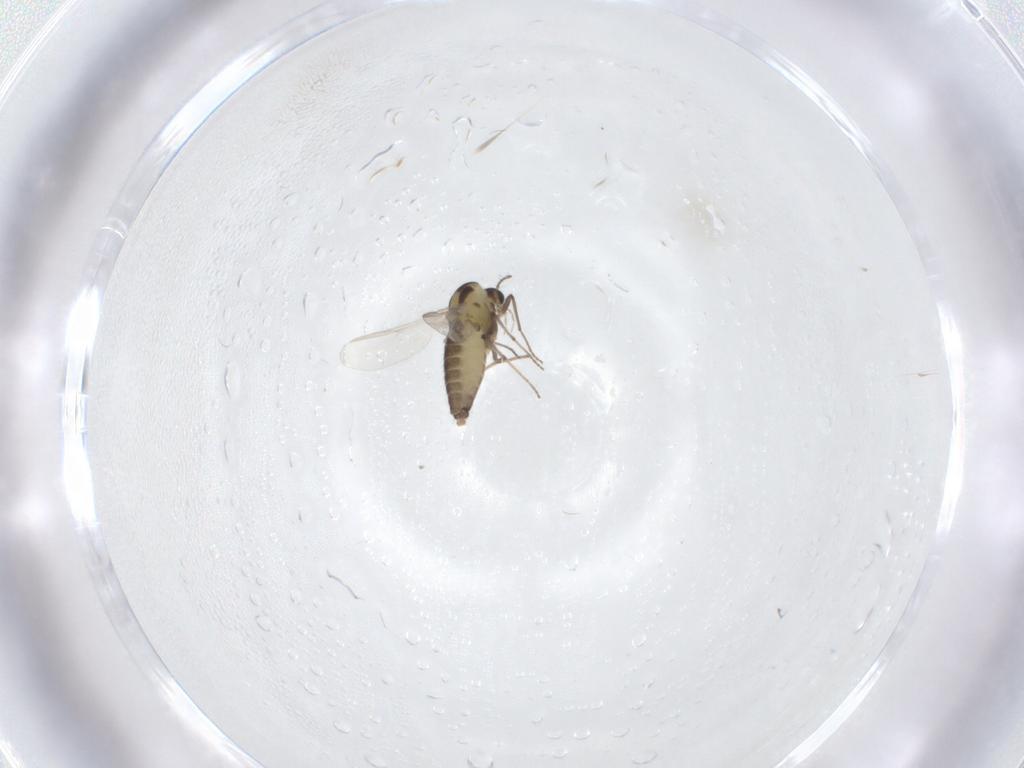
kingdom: Animalia
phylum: Arthropoda
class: Insecta
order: Diptera
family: Chironomidae
